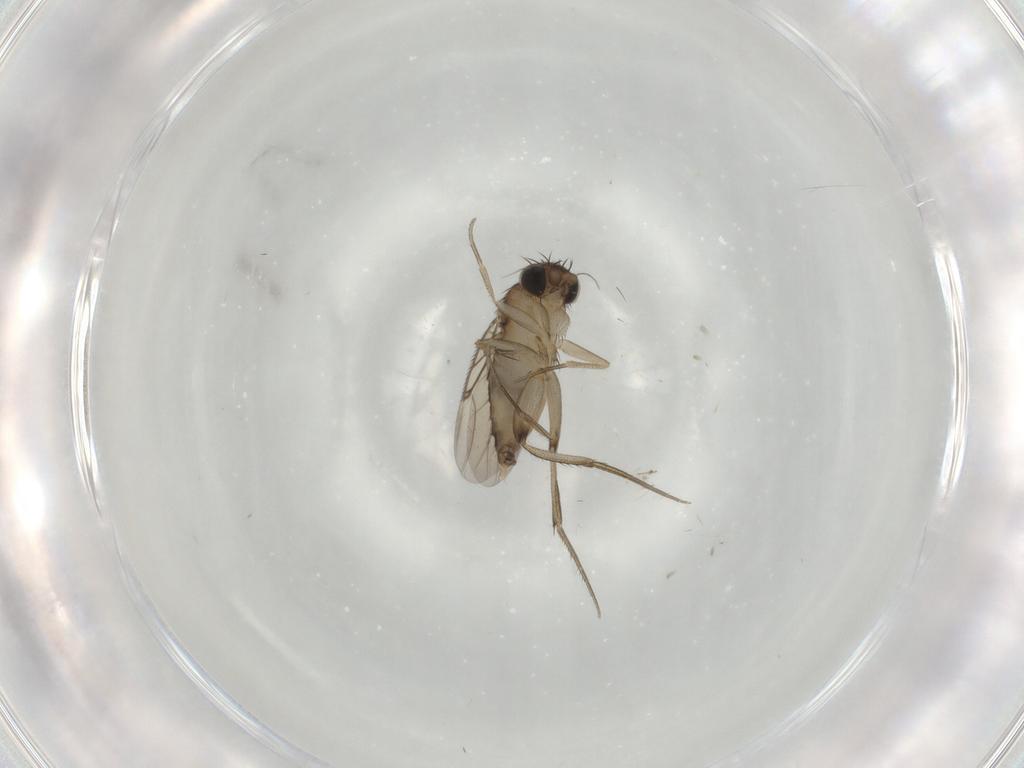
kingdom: Animalia
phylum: Arthropoda
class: Insecta
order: Diptera
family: Phoridae
